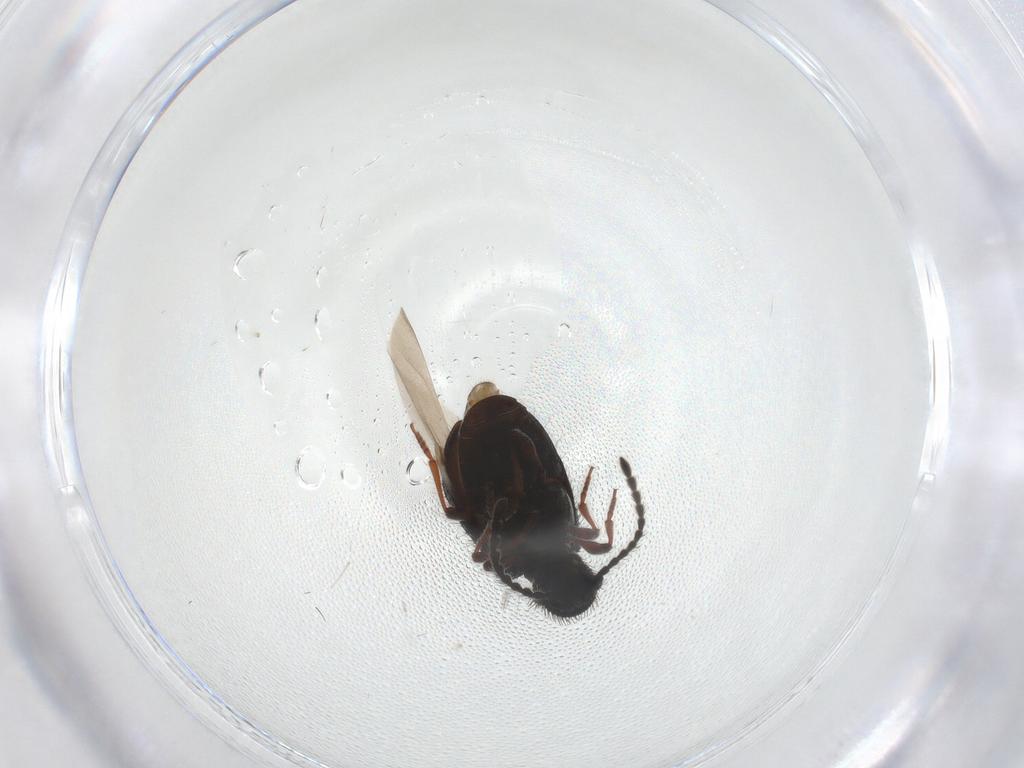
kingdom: Animalia
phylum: Arthropoda
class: Insecta
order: Coleoptera
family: Ptinidae
